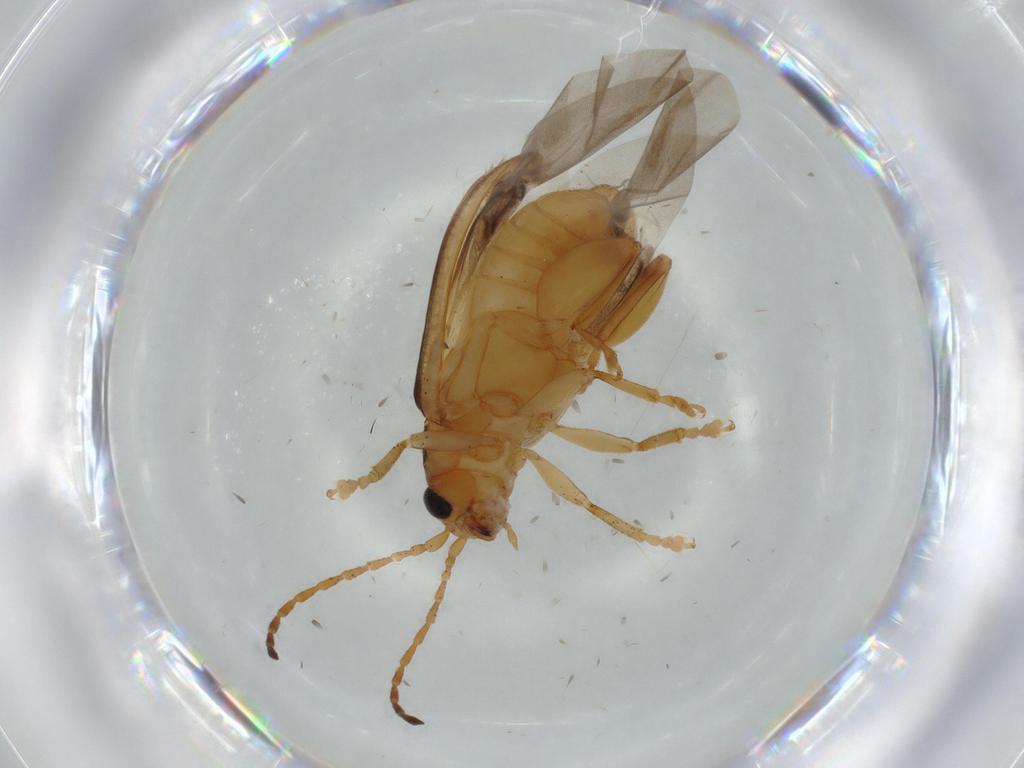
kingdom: Animalia
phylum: Arthropoda
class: Insecta
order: Coleoptera
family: Chrysomelidae
